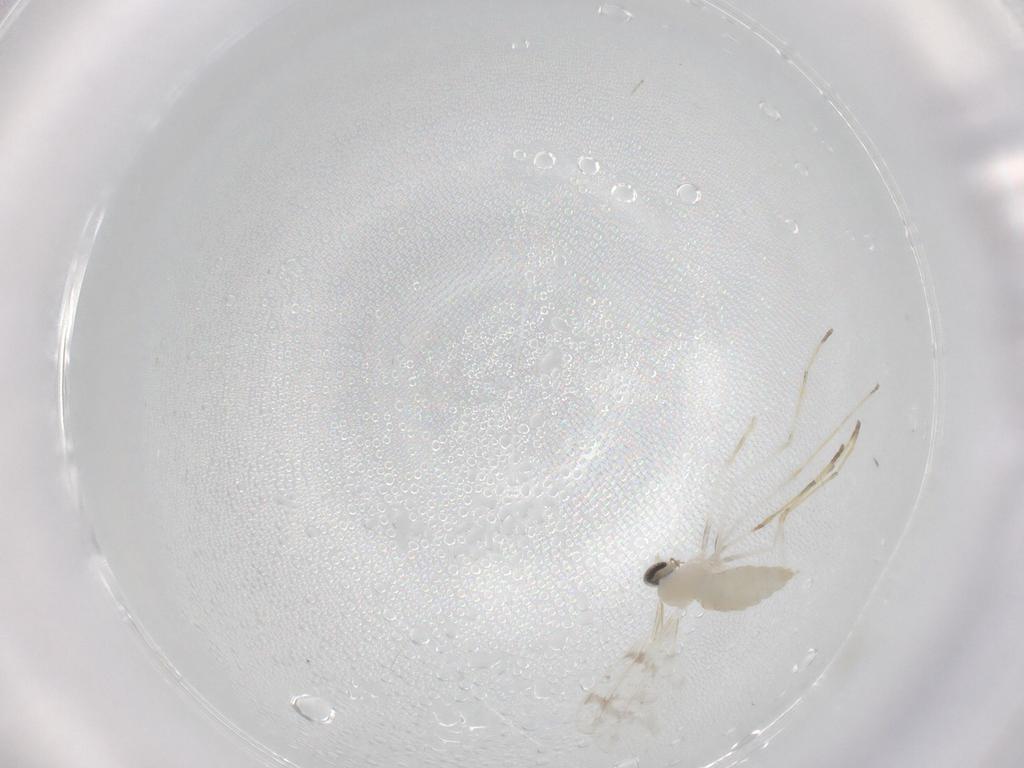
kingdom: Animalia
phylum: Arthropoda
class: Insecta
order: Diptera
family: Cecidomyiidae
